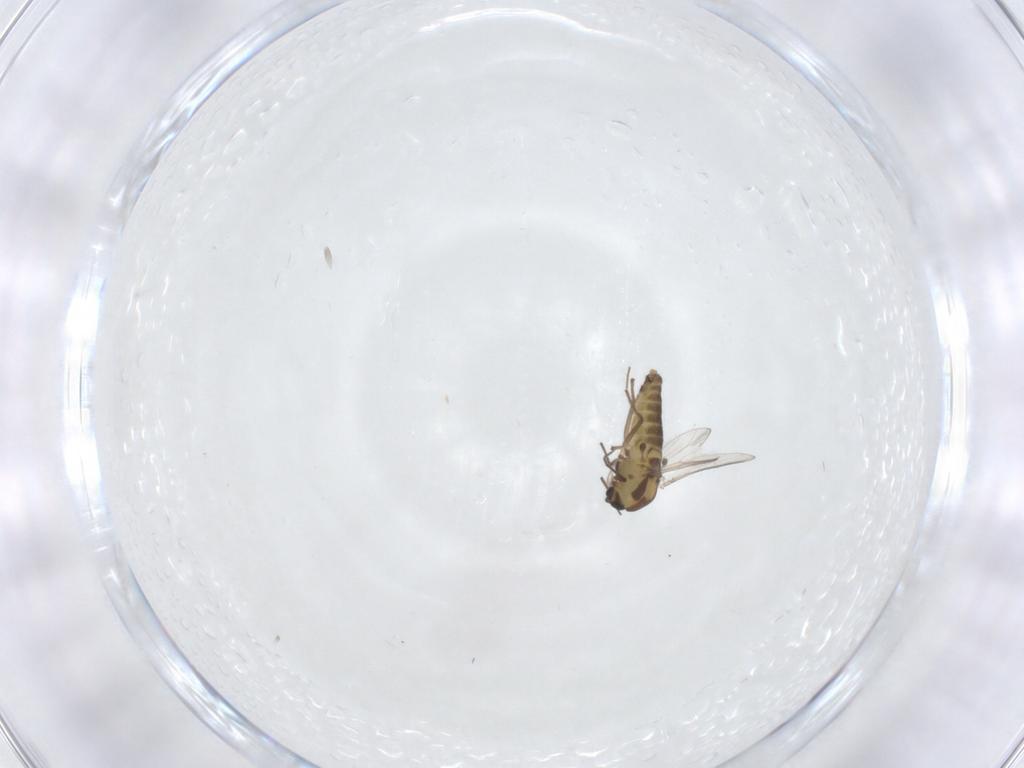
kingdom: Animalia
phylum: Arthropoda
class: Insecta
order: Diptera
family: Chironomidae
